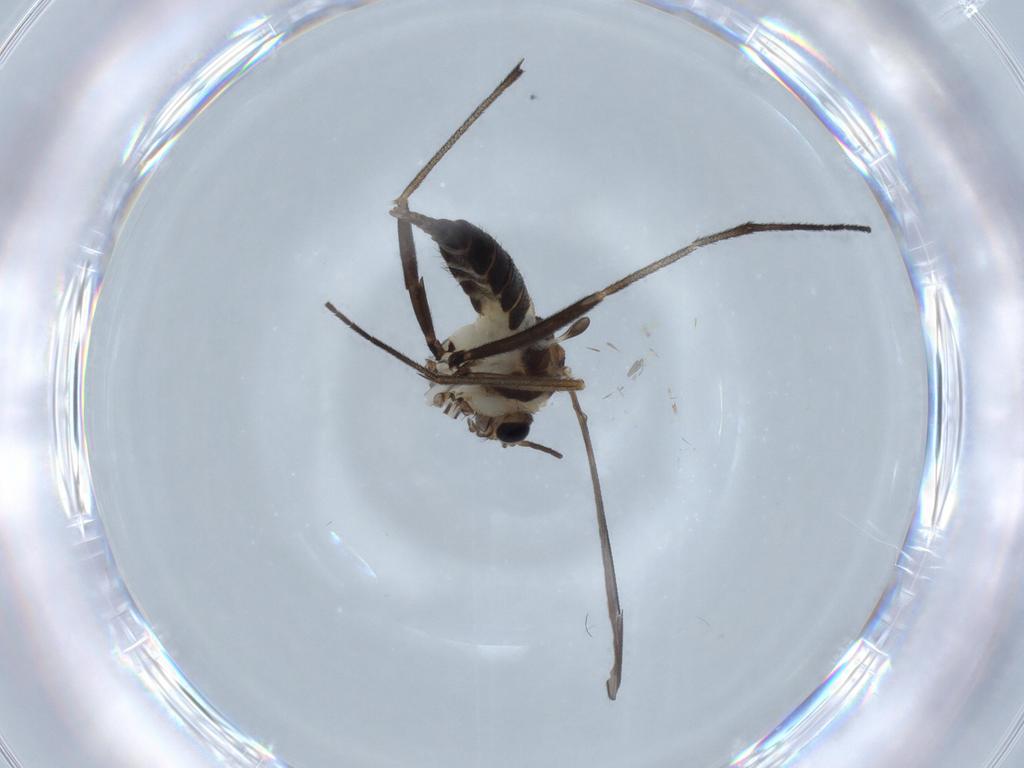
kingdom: Animalia
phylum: Arthropoda
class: Insecta
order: Diptera
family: Sciaridae
